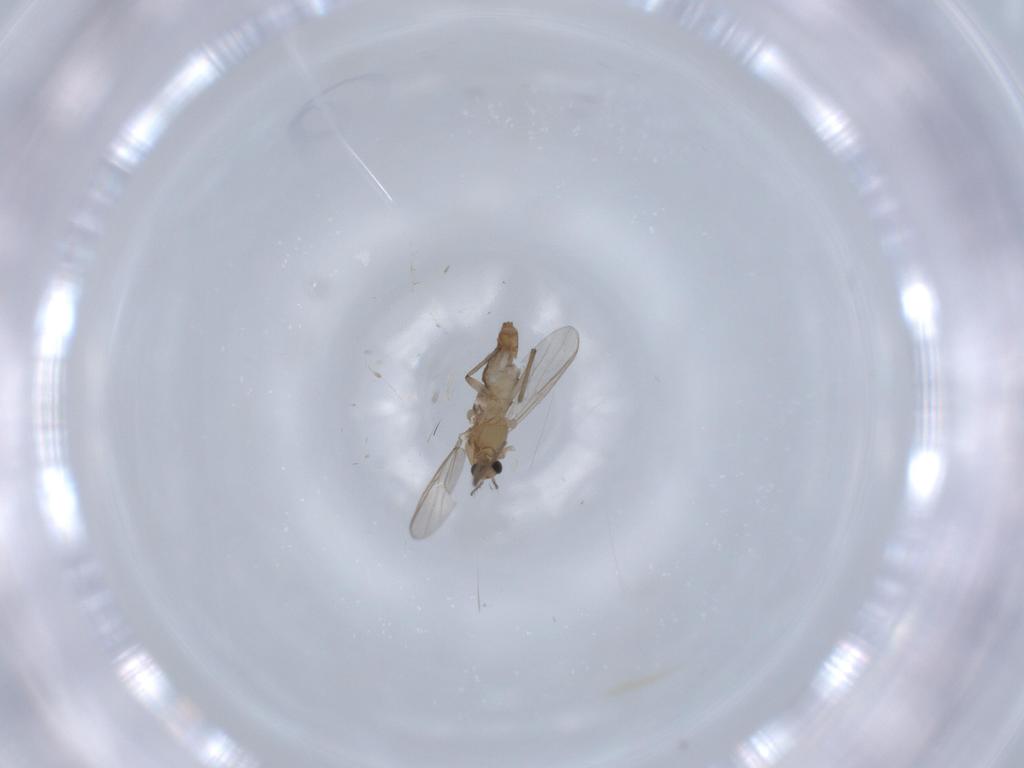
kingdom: Animalia
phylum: Arthropoda
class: Insecta
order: Diptera
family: Chironomidae
